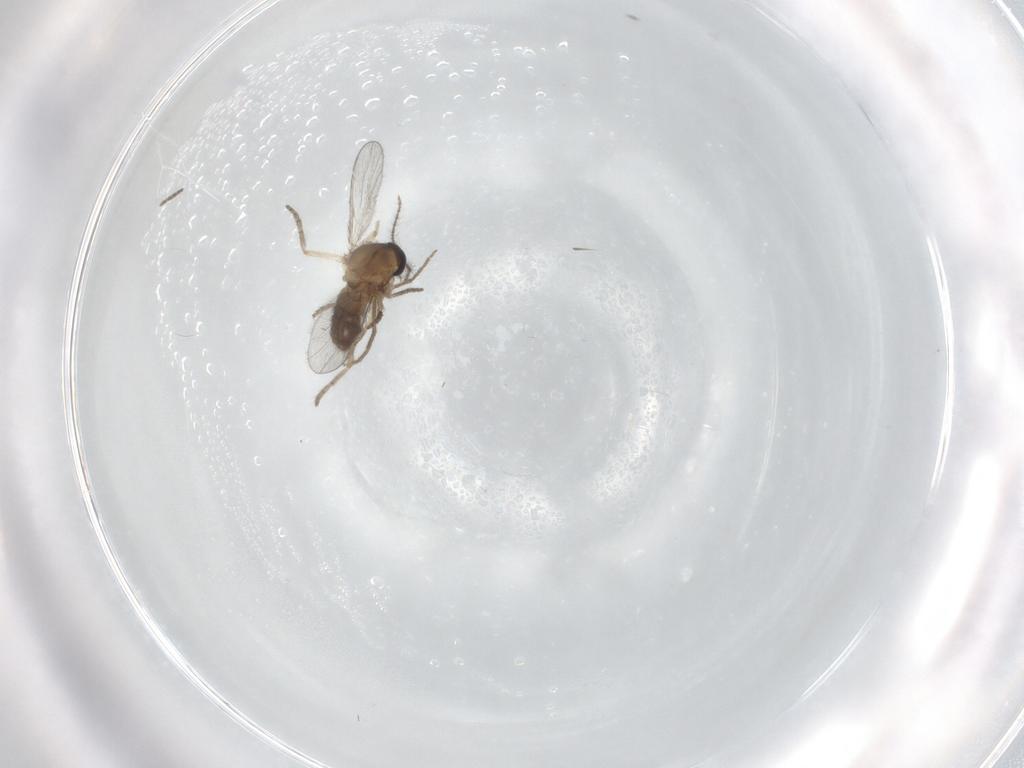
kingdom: Animalia
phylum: Arthropoda
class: Insecta
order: Diptera
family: Chironomidae
